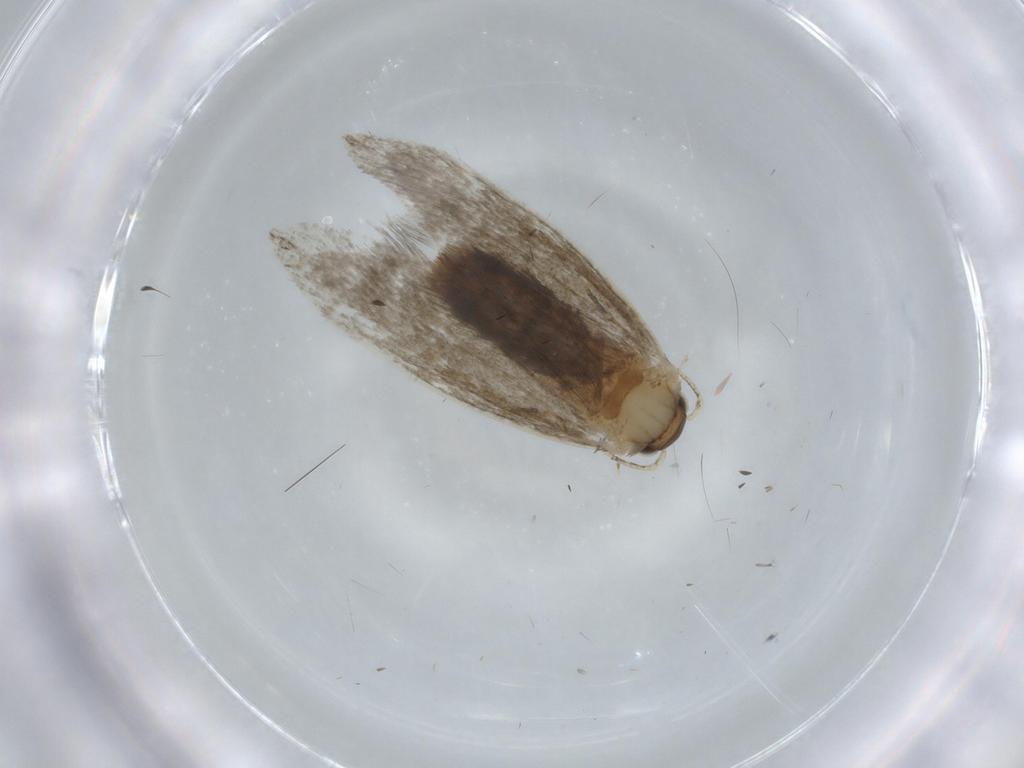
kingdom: Animalia
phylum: Arthropoda
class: Insecta
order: Lepidoptera
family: Tineidae
